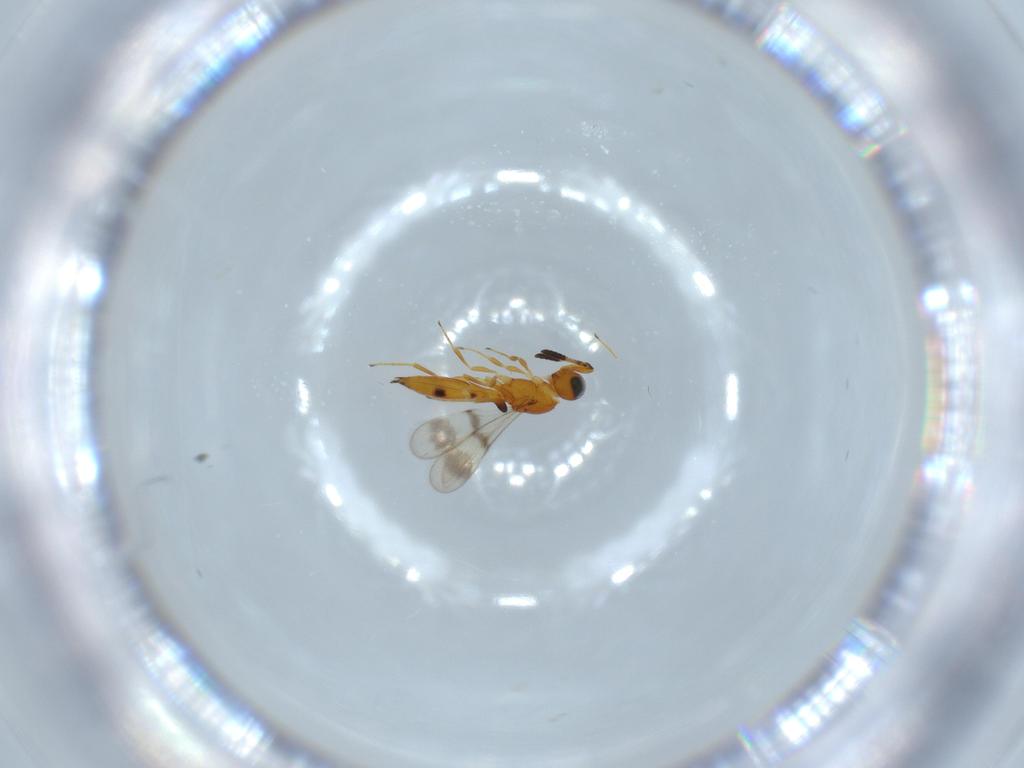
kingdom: Animalia
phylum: Arthropoda
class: Insecta
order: Hymenoptera
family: Scelionidae
